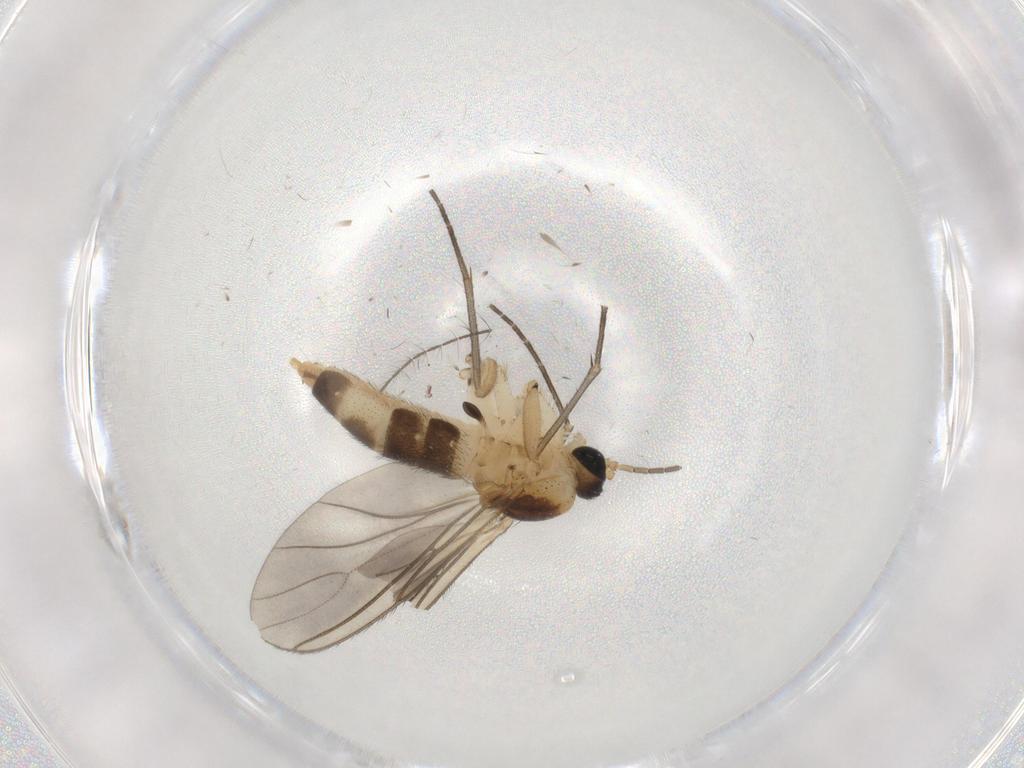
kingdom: Animalia
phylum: Arthropoda
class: Insecta
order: Diptera
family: Sciaridae
